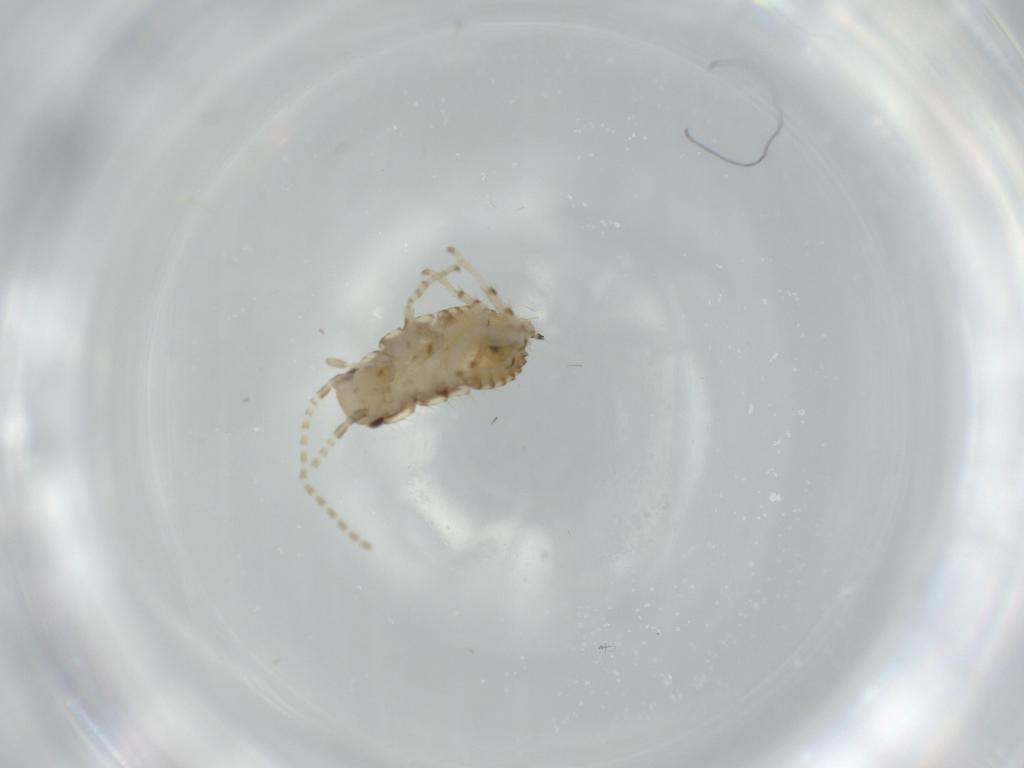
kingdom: Animalia
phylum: Arthropoda
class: Insecta
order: Blattodea
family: Ectobiidae
